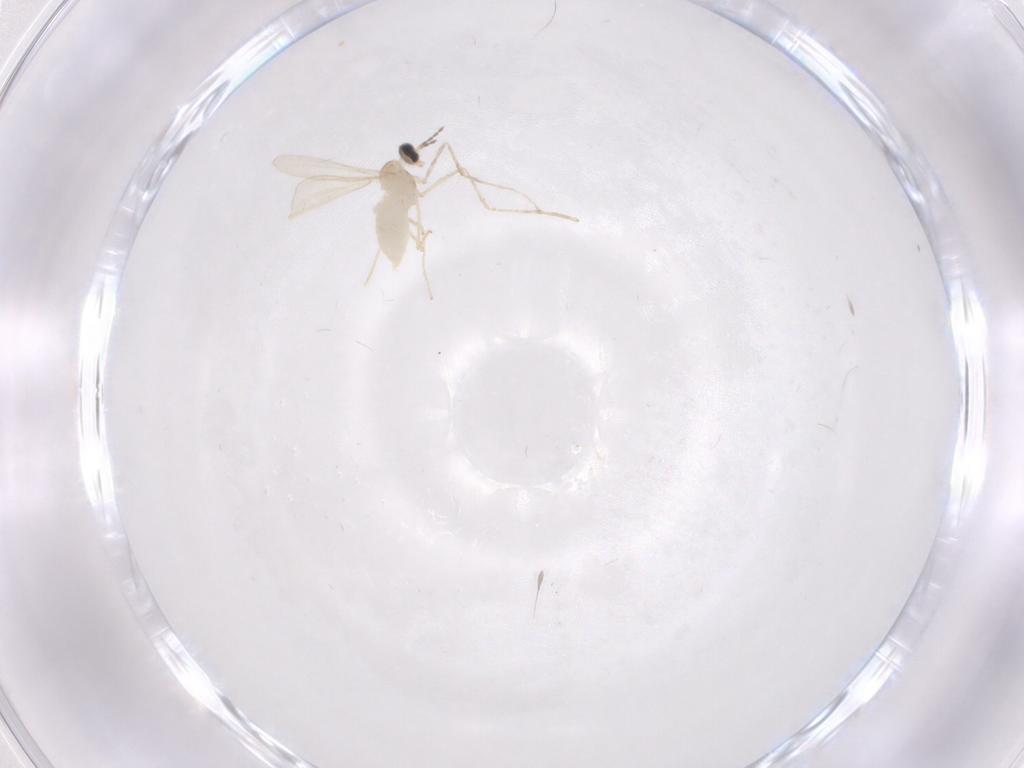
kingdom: Animalia
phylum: Arthropoda
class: Insecta
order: Diptera
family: Cecidomyiidae
